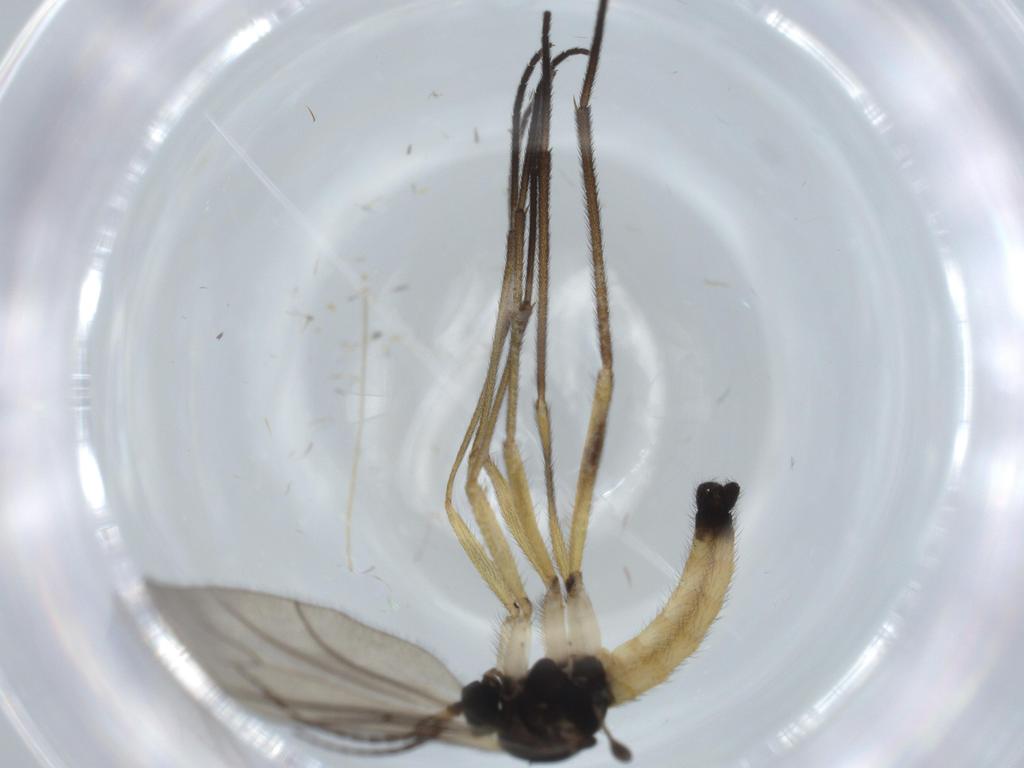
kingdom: Animalia
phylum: Arthropoda
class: Insecta
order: Diptera
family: Sciaridae
